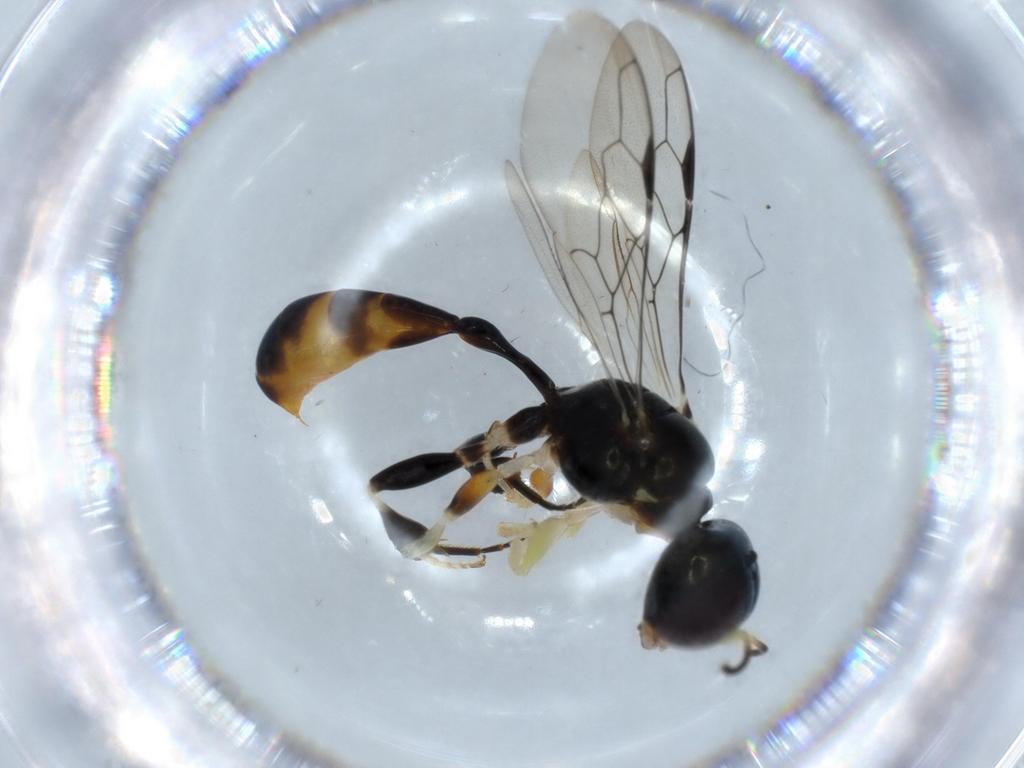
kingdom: Animalia
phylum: Arthropoda
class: Insecta
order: Hymenoptera
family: Crabronidae
